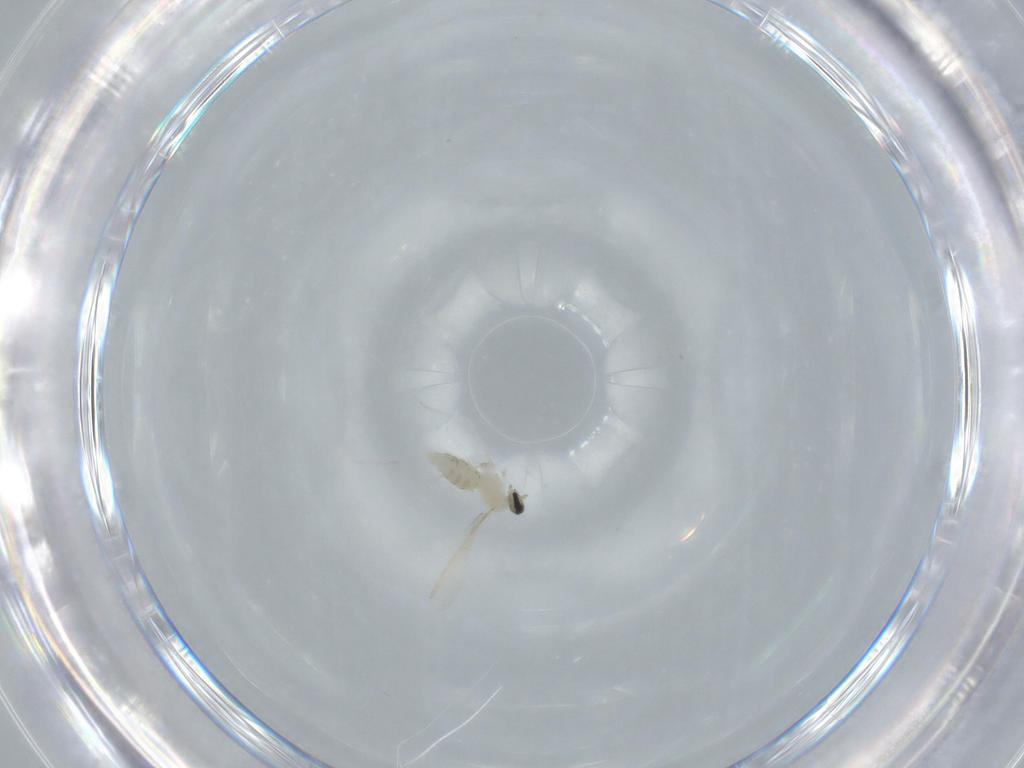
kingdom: Animalia
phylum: Arthropoda
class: Insecta
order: Diptera
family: Cecidomyiidae
